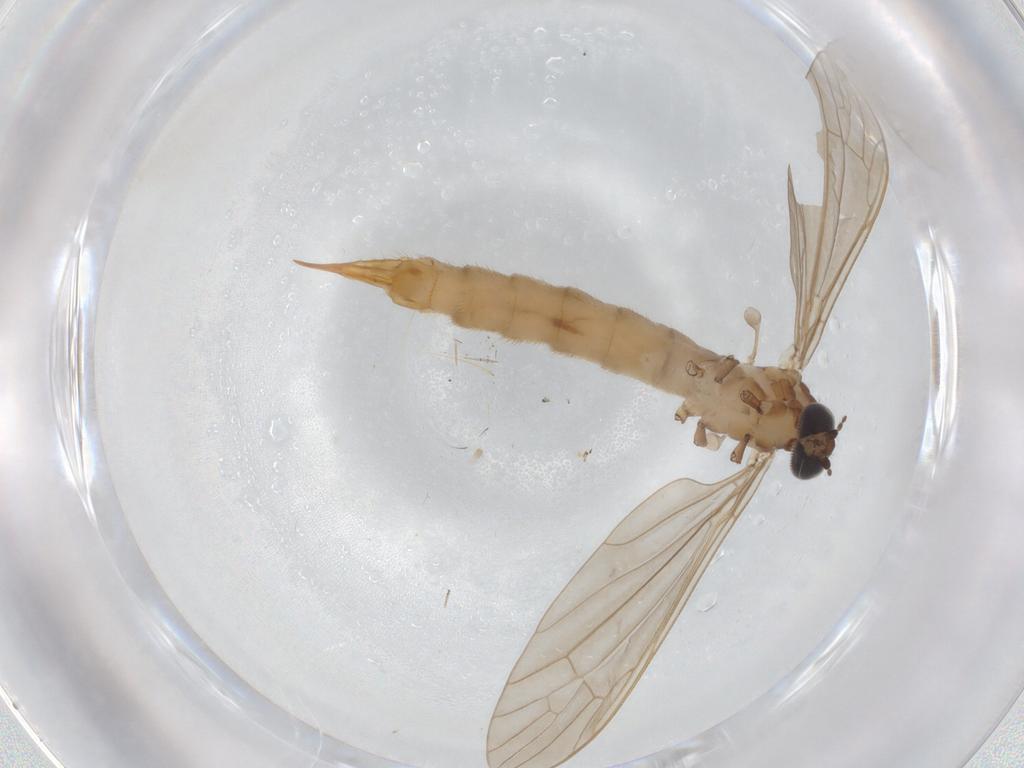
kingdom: Animalia
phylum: Arthropoda
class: Insecta
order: Diptera
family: Limoniidae
